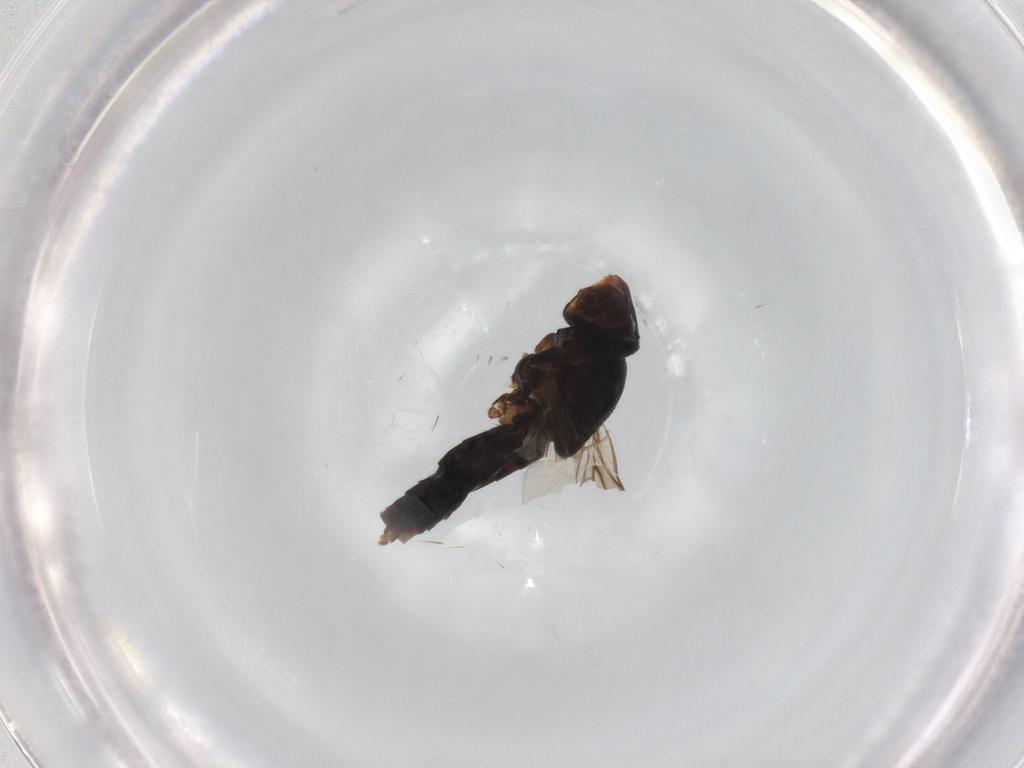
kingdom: Animalia
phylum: Arthropoda
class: Insecta
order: Diptera
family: Chloropidae
